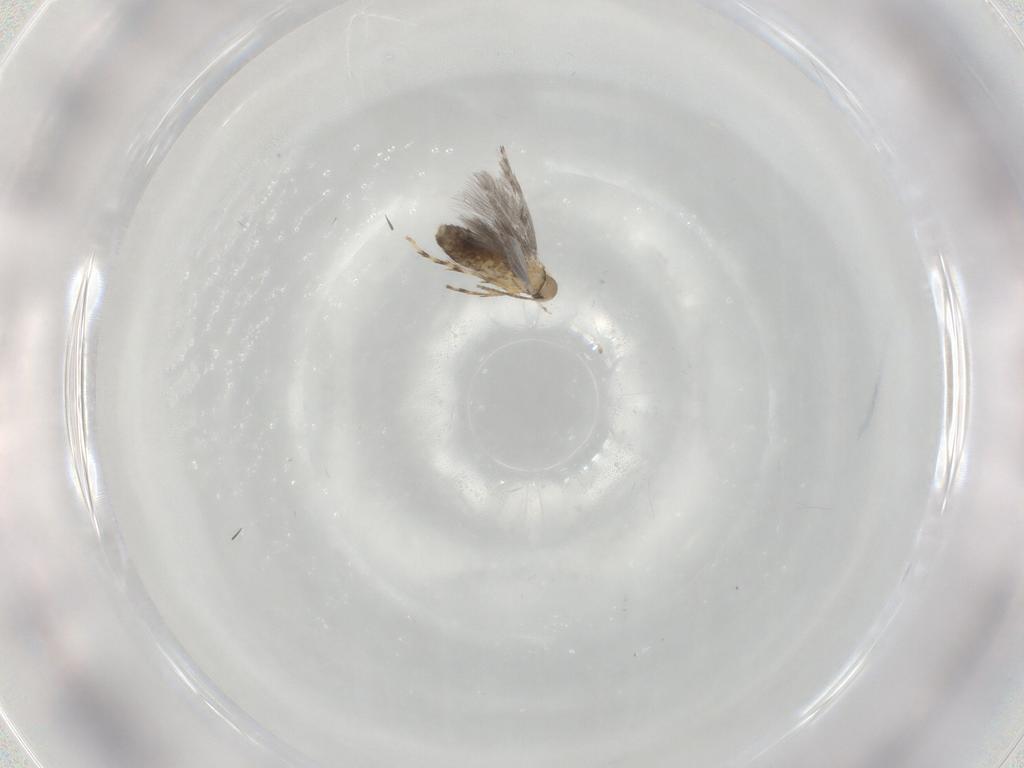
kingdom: Animalia
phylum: Arthropoda
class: Insecta
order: Lepidoptera
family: Gracillariidae
